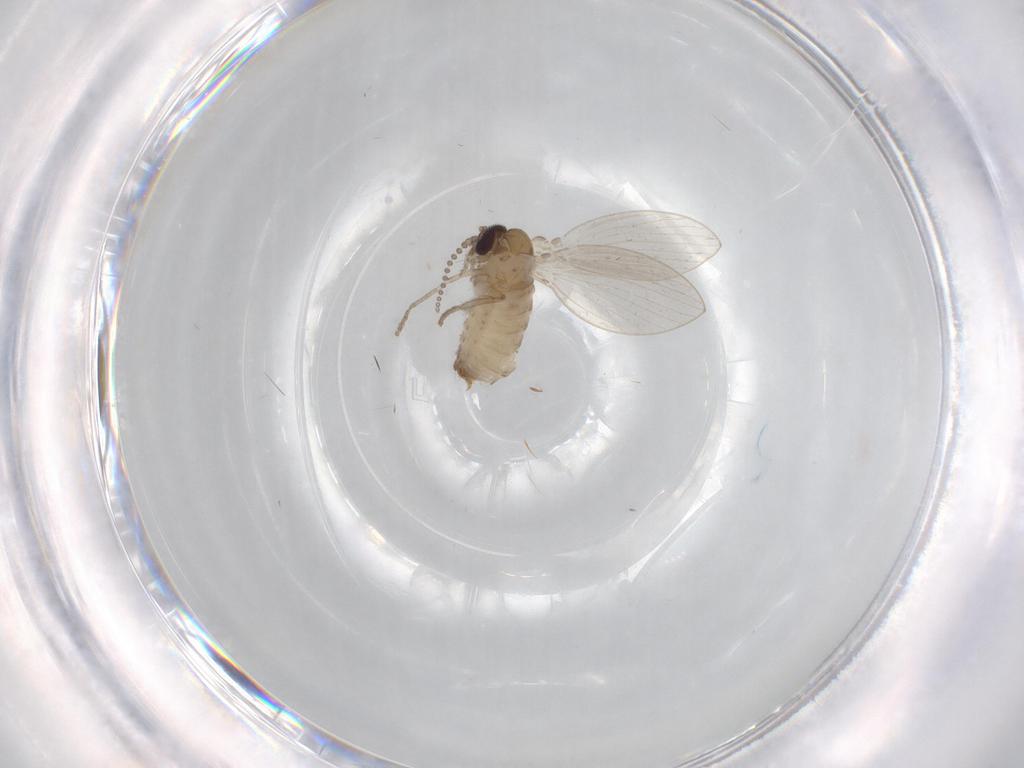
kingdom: Animalia
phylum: Arthropoda
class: Insecta
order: Diptera
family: Psychodidae
